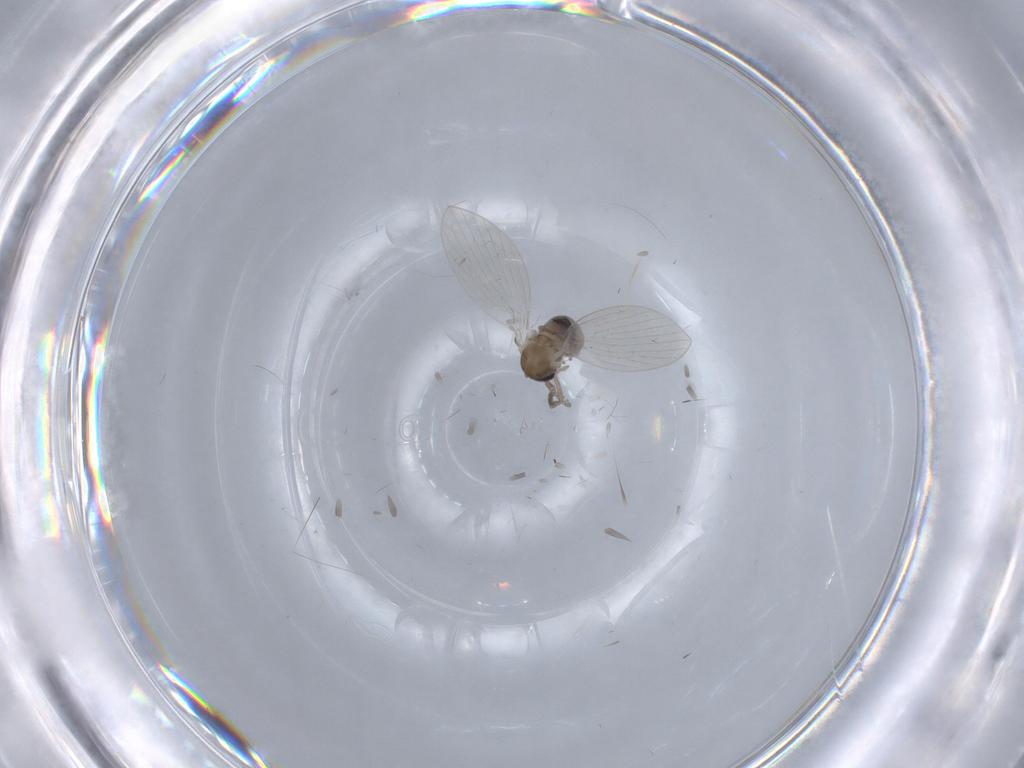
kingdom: Animalia
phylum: Arthropoda
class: Insecta
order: Diptera
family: Psychodidae
